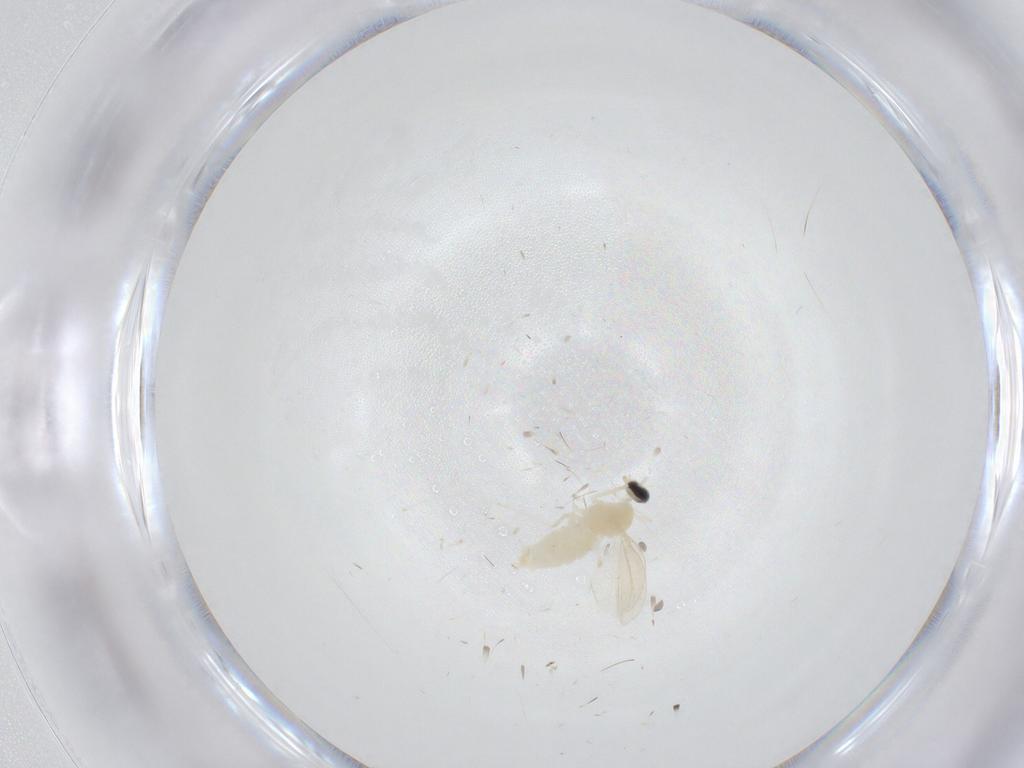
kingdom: Animalia
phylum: Arthropoda
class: Insecta
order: Diptera
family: Cecidomyiidae
